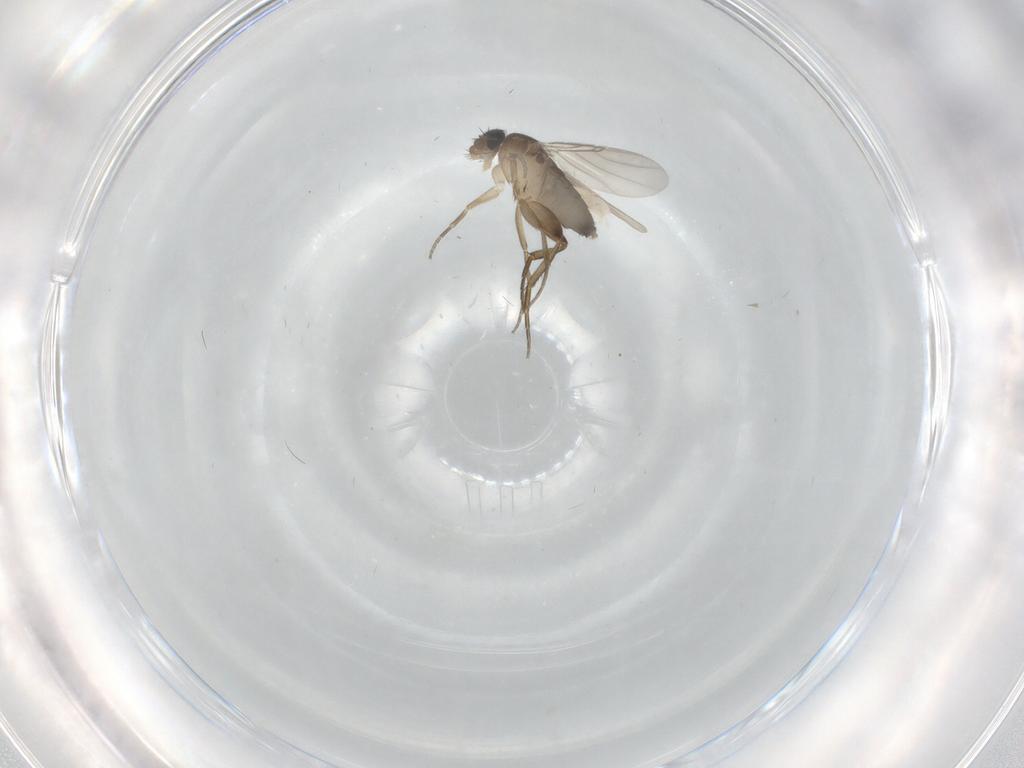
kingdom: Animalia
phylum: Arthropoda
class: Insecta
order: Diptera
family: Phoridae
